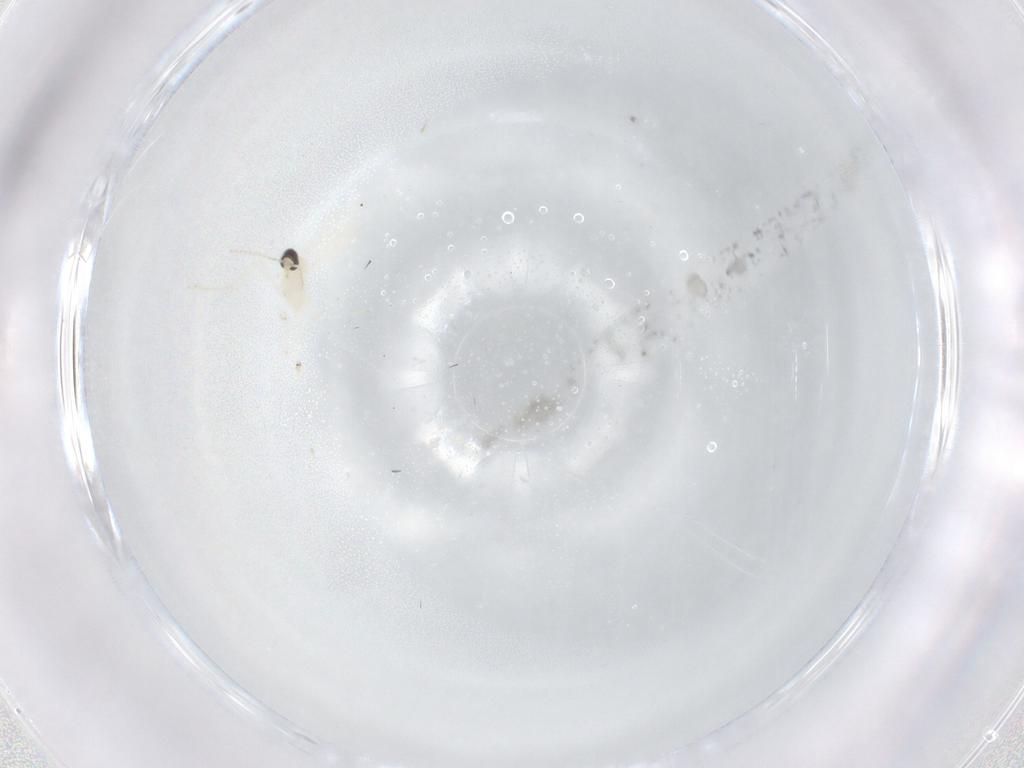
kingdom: Animalia
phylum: Arthropoda
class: Insecta
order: Diptera
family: Cecidomyiidae
